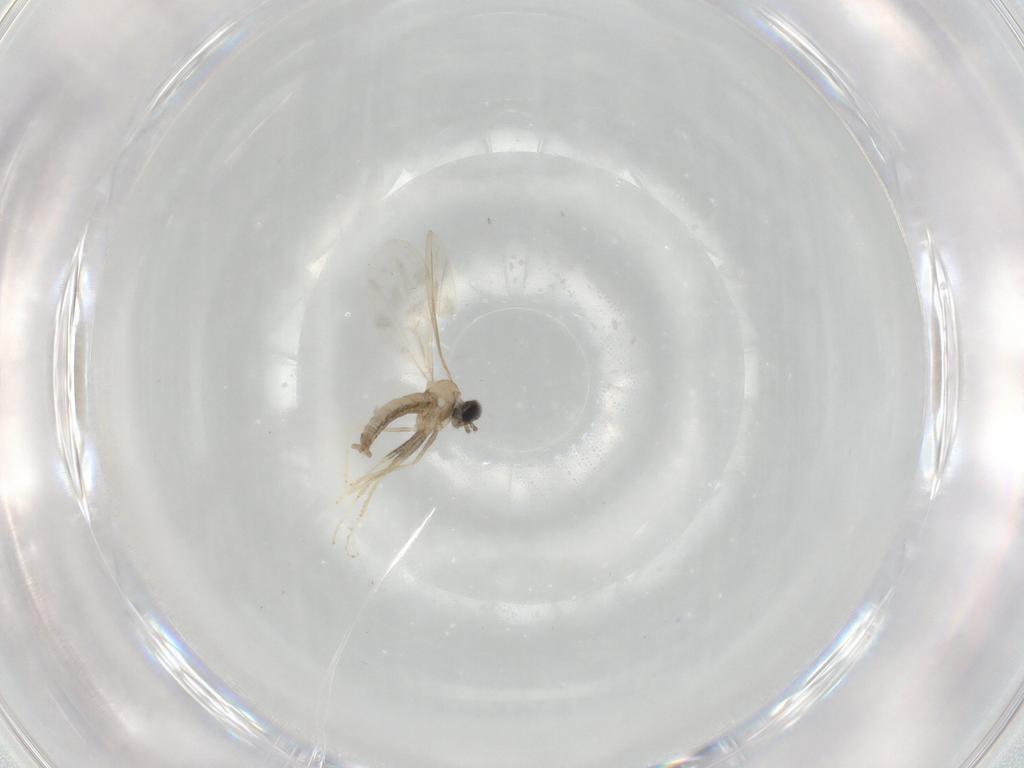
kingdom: Animalia
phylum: Arthropoda
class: Insecta
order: Diptera
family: Cecidomyiidae
